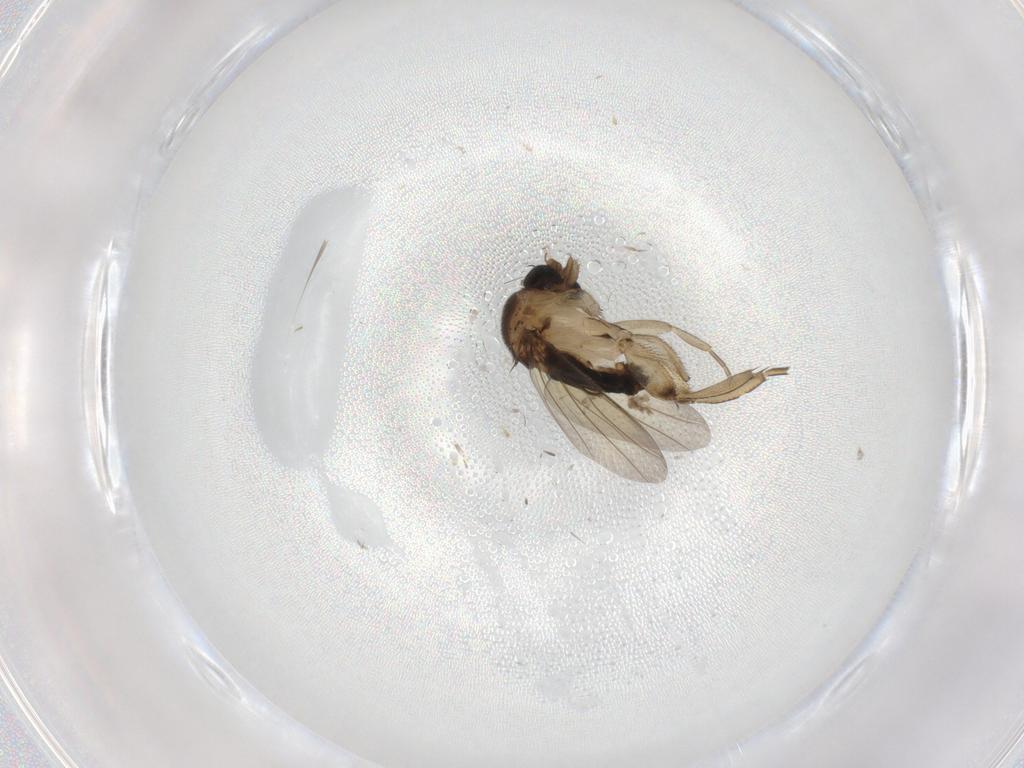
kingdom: Animalia
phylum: Arthropoda
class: Insecta
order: Diptera
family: Phoridae
